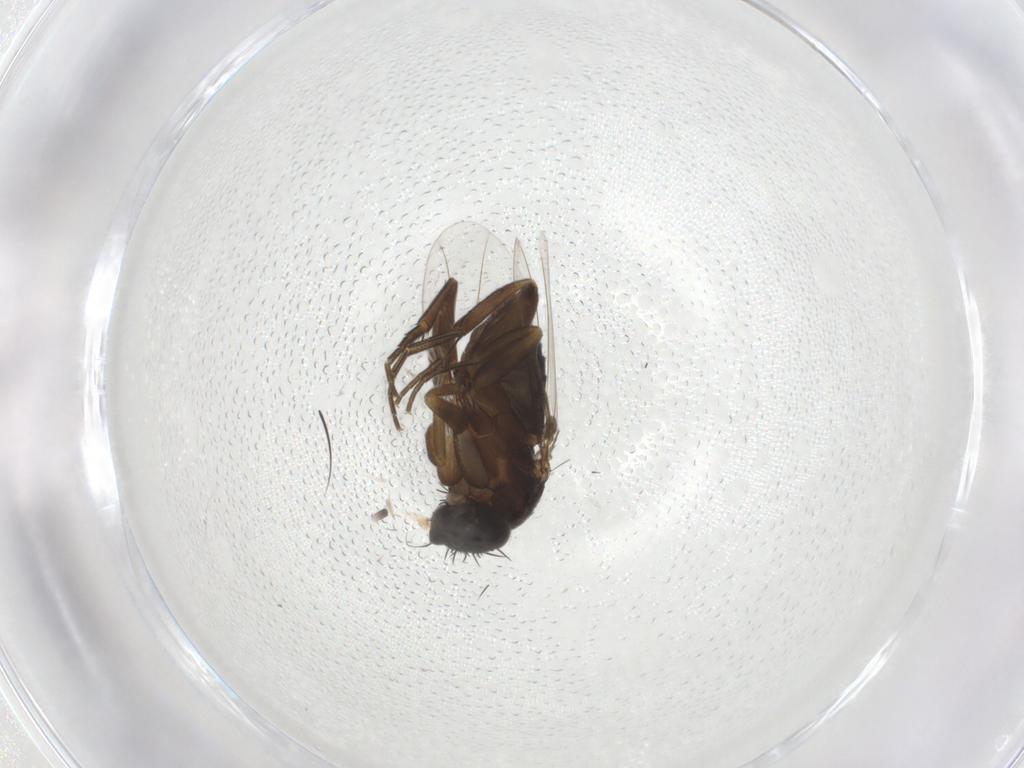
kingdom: Animalia
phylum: Arthropoda
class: Insecta
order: Diptera
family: Phoridae
